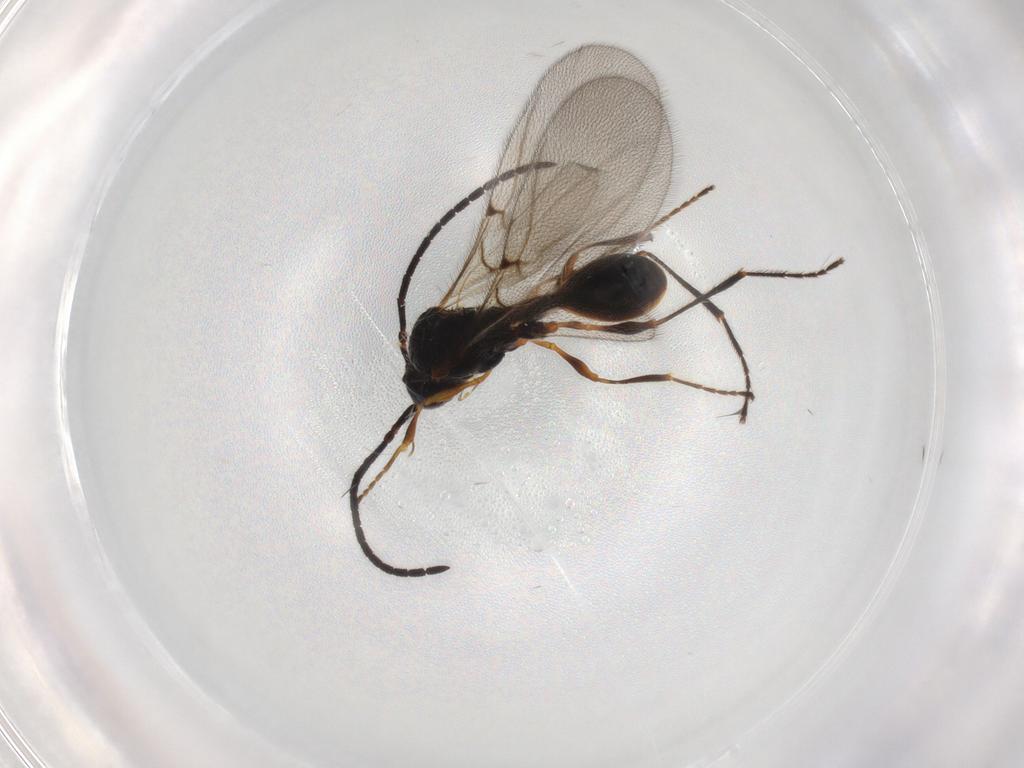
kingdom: Animalia
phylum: Arthropoda
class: Insecta
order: Hymenoptera
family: Diapriidae
